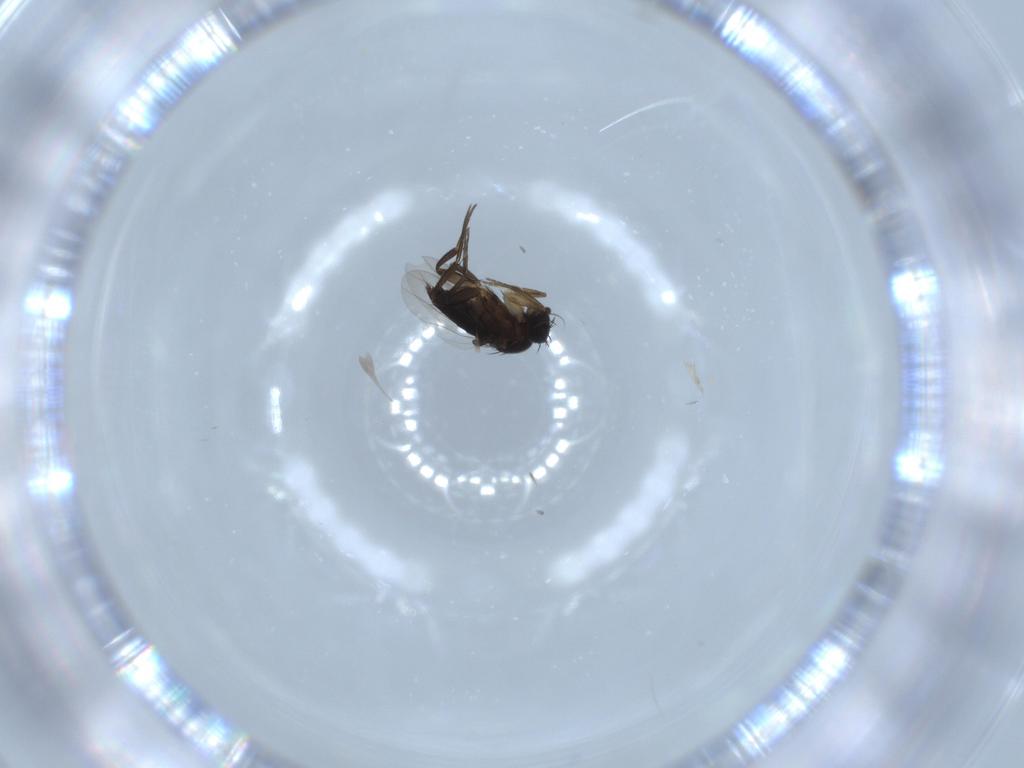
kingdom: Animalia
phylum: Arthropoda
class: Insecta
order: Diptera
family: Phoridae
